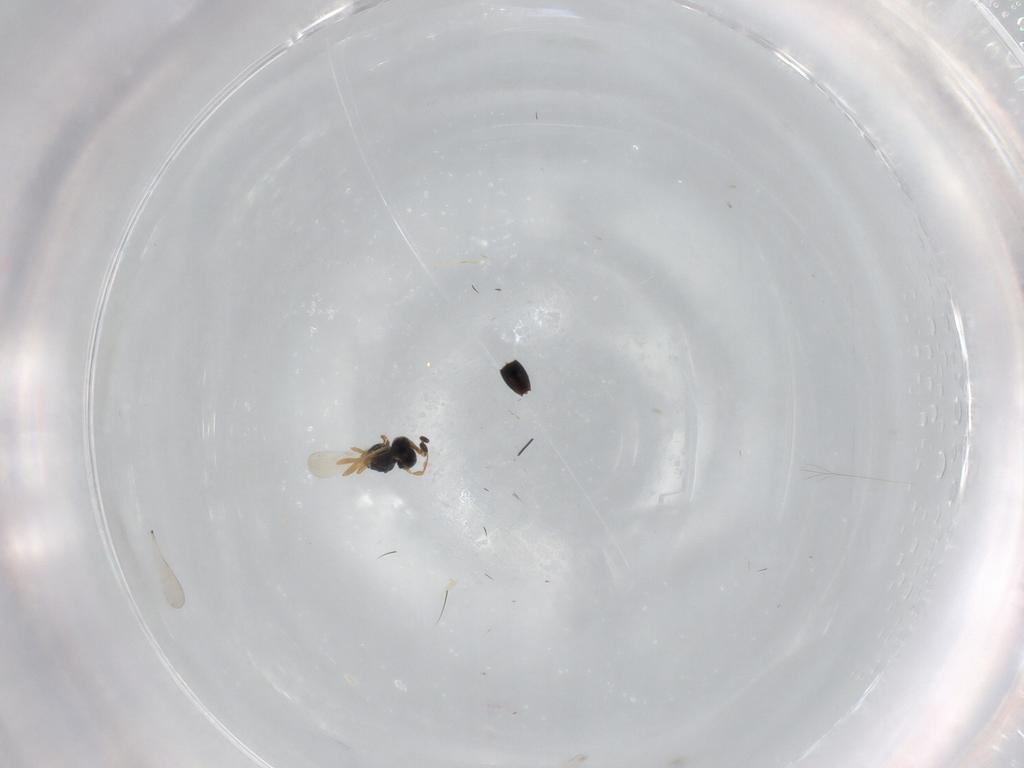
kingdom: Animalia
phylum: Arthropoda
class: Insecta
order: Hymenoptera
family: Scelionidae
